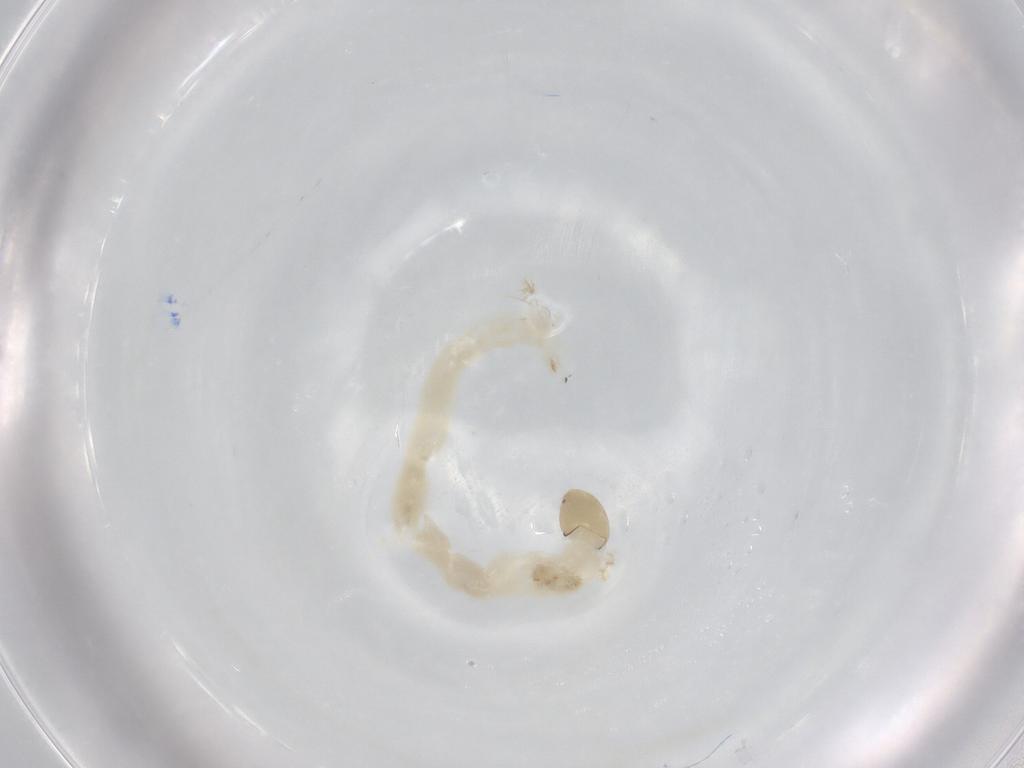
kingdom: Animalia
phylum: Arthropoda
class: Insecta
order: Diptera
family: Chironomidae
